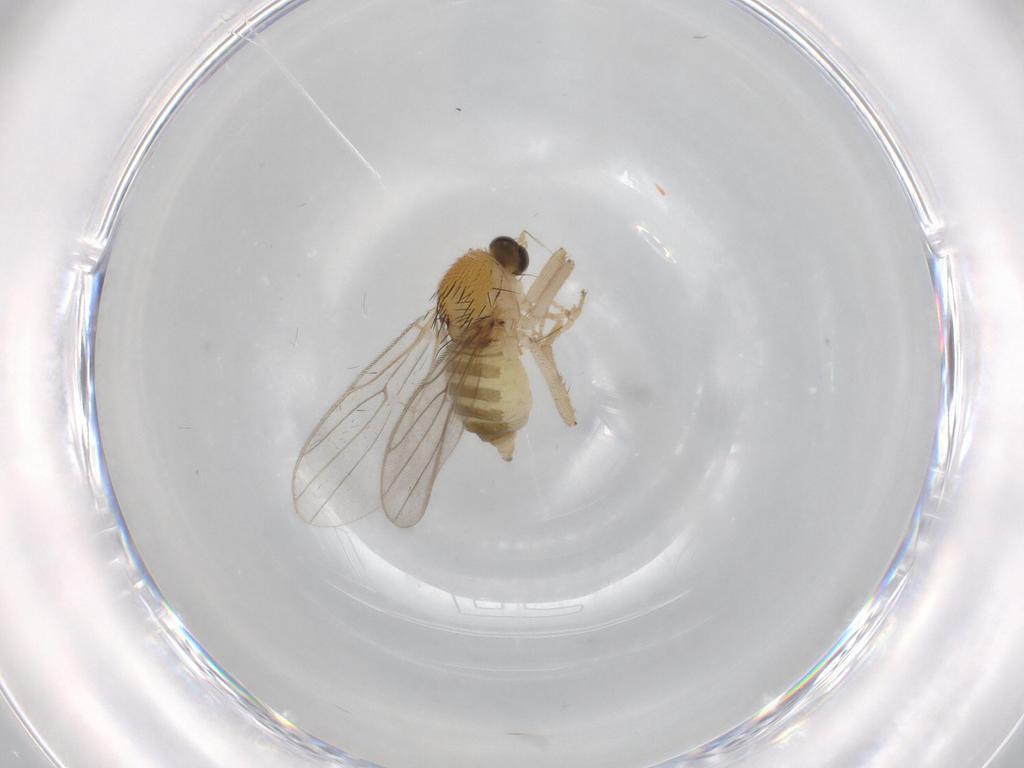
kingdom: Animalia
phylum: Arthropoda
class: Insecta
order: Diptera
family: Hybotidae
